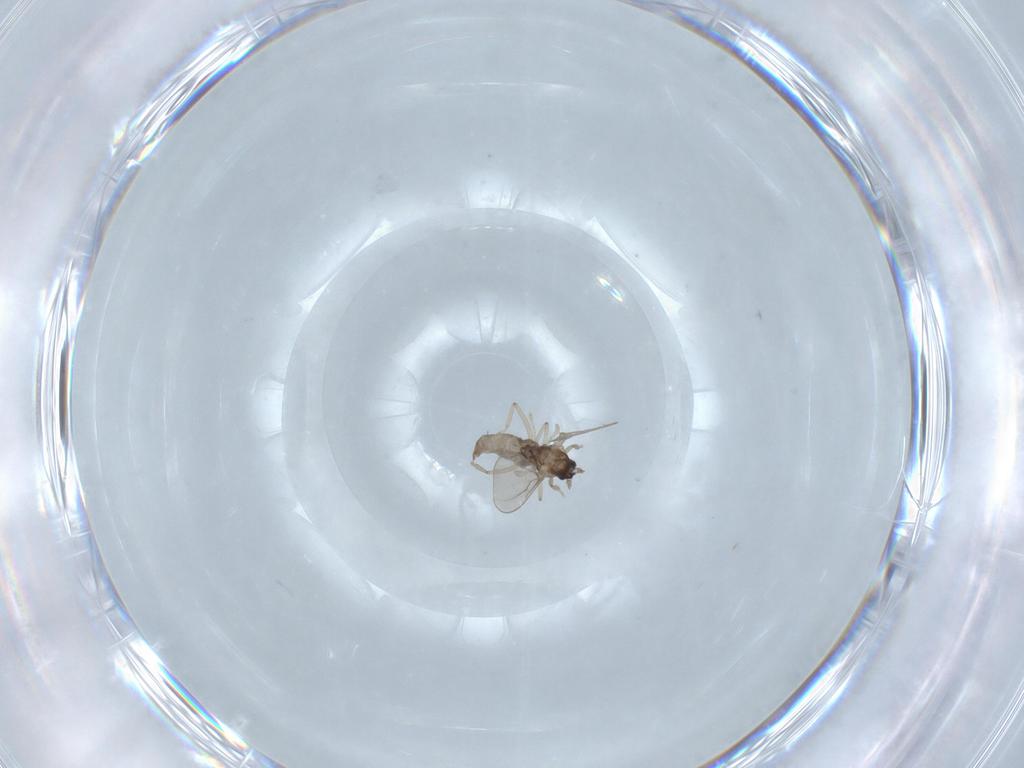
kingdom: Animalia
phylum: Arthropoda
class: Insecta
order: Diptera
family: Cecidomyiidae
